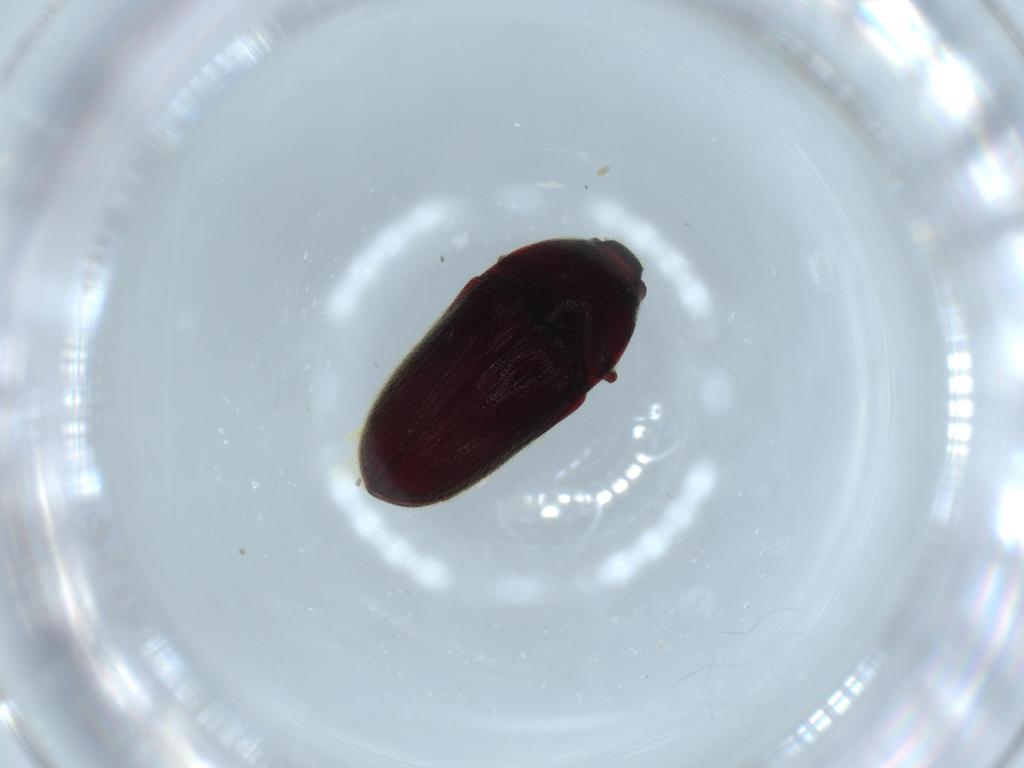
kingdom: Animalia
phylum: Arthropoda
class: Insecta
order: Coleoptera
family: Throscidae
